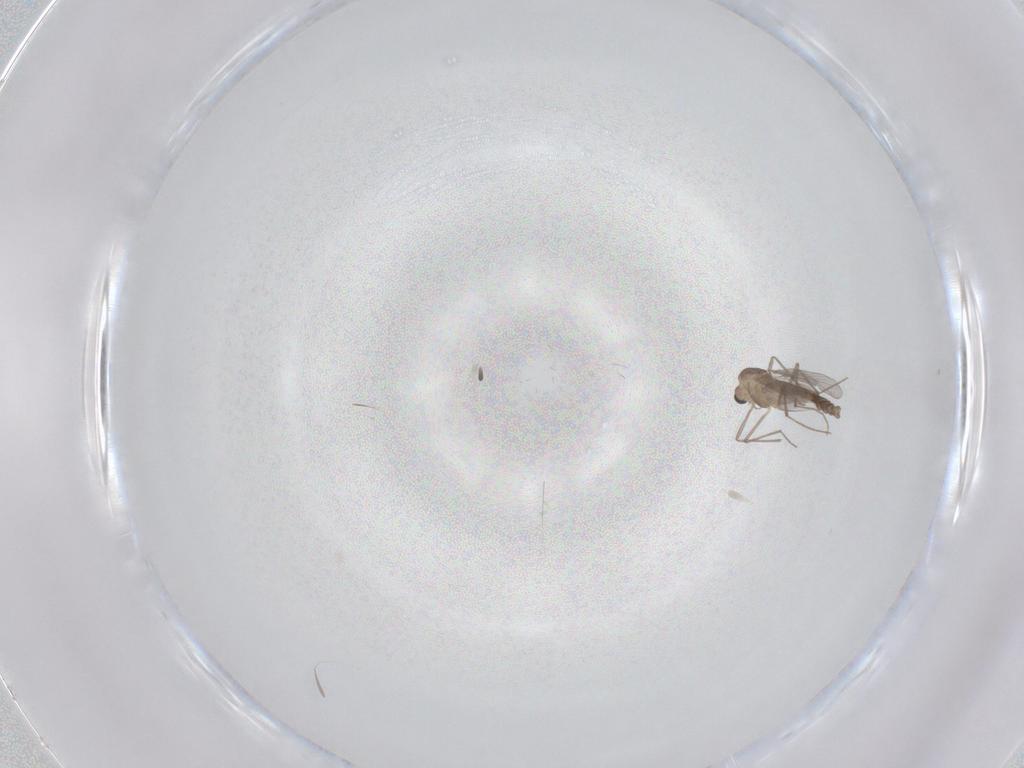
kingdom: Animalia
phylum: Arthropoda
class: Insecta
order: Diptera
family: Chironomidae
